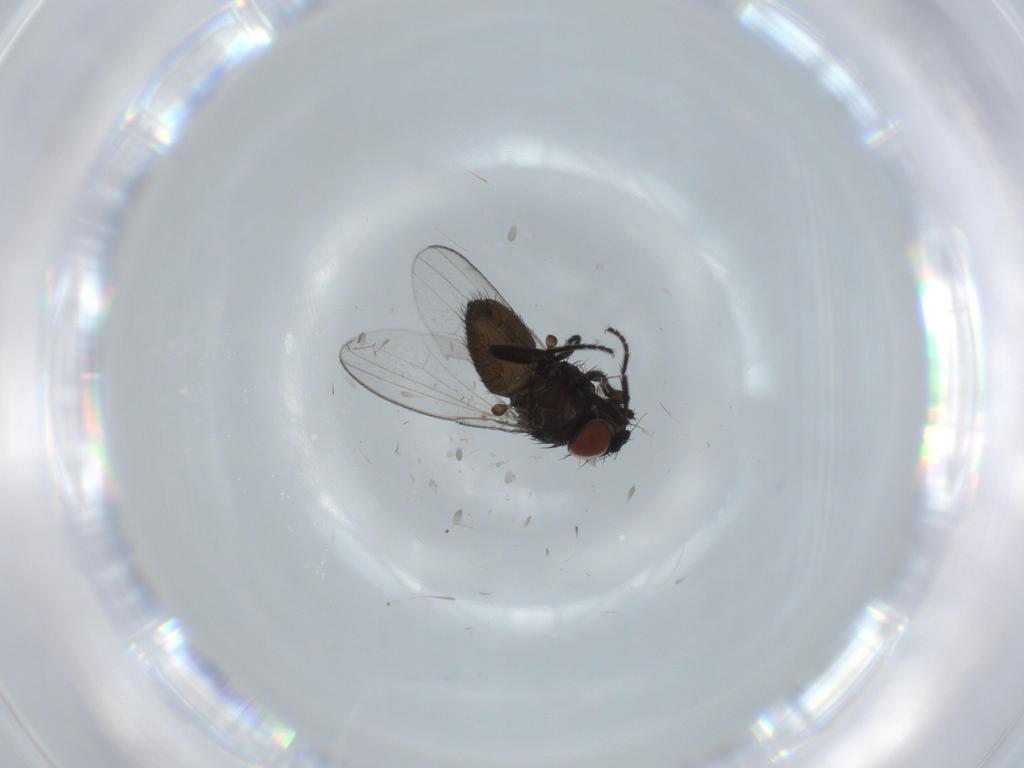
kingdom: Animalia
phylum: Arthropoda
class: Insecta
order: Diptera
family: Milichiidae
